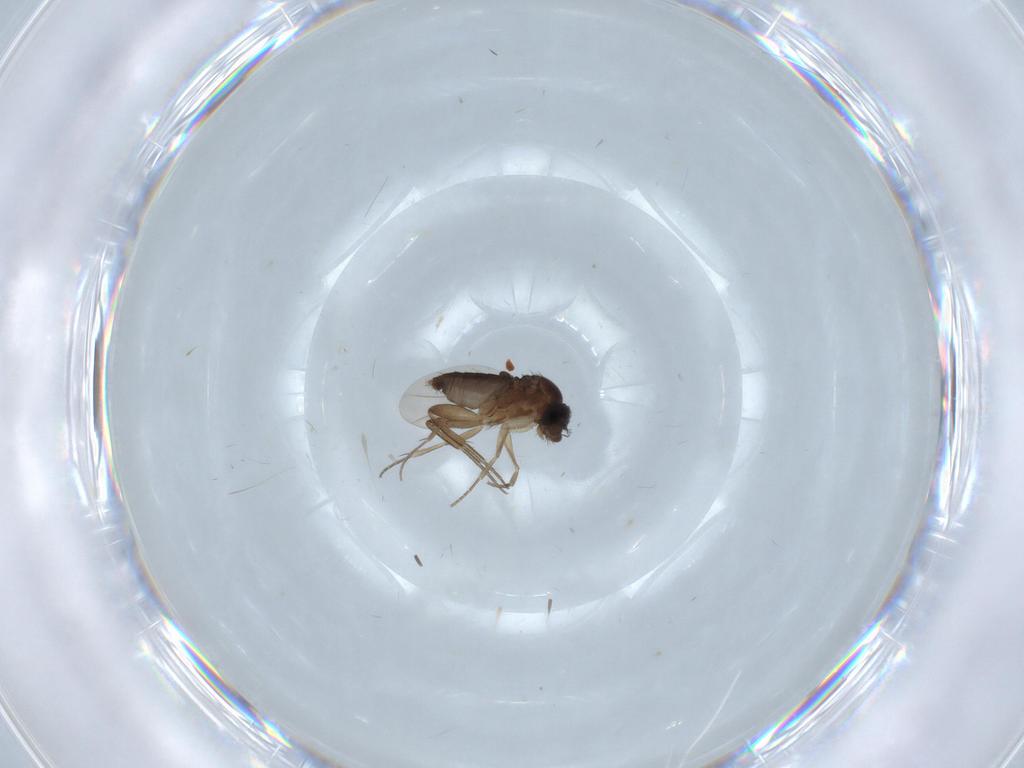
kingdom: Animalia
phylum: Arthropoda
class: Insecta
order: Diptera
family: Phoridae
